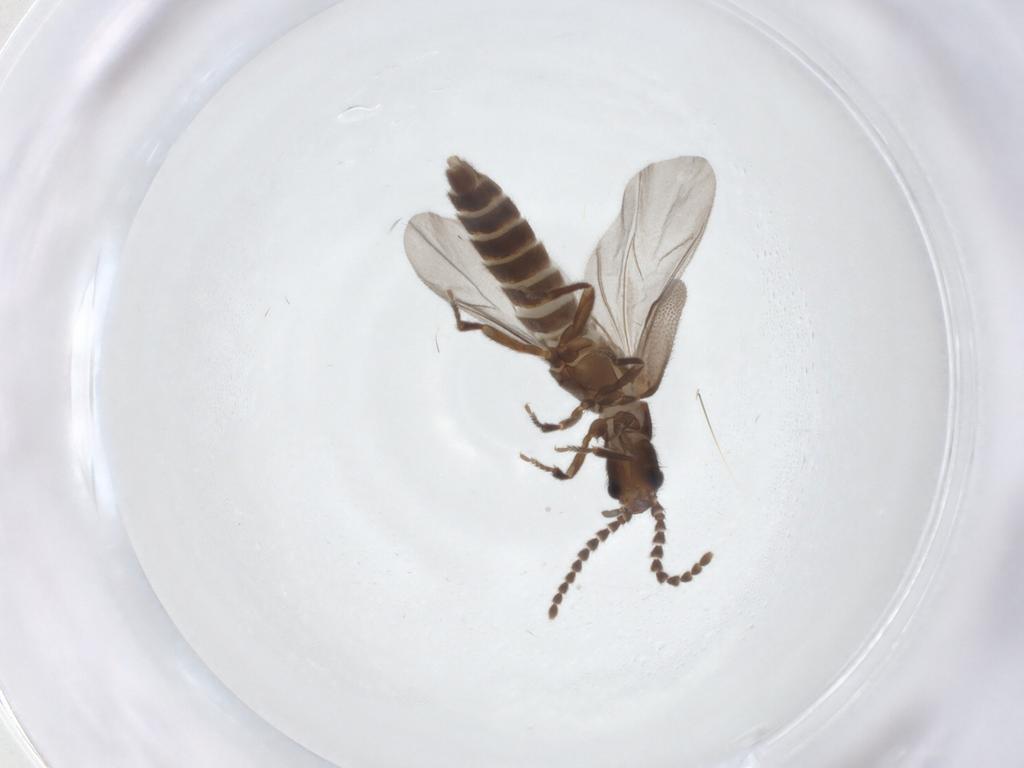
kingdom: Animalia
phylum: Arthropoda
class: Insecta
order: Coleoptera
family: Omethidae
